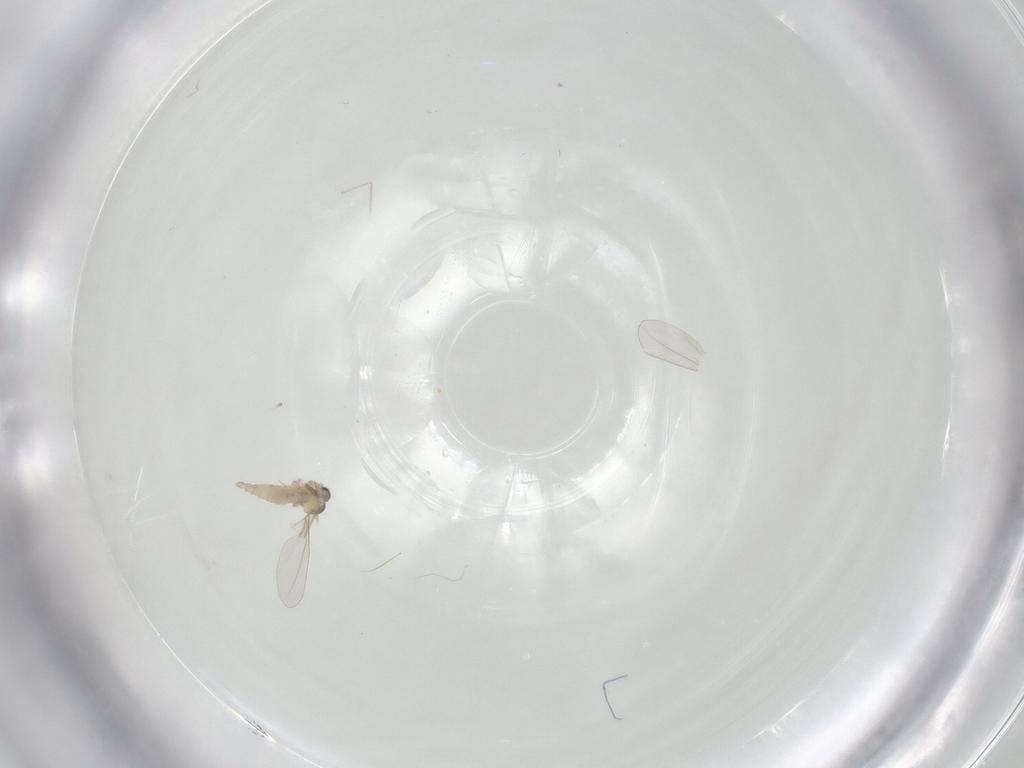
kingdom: Animalia
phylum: Arthropoda
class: Insecta
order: Diptera
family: Cecidomyiidae
